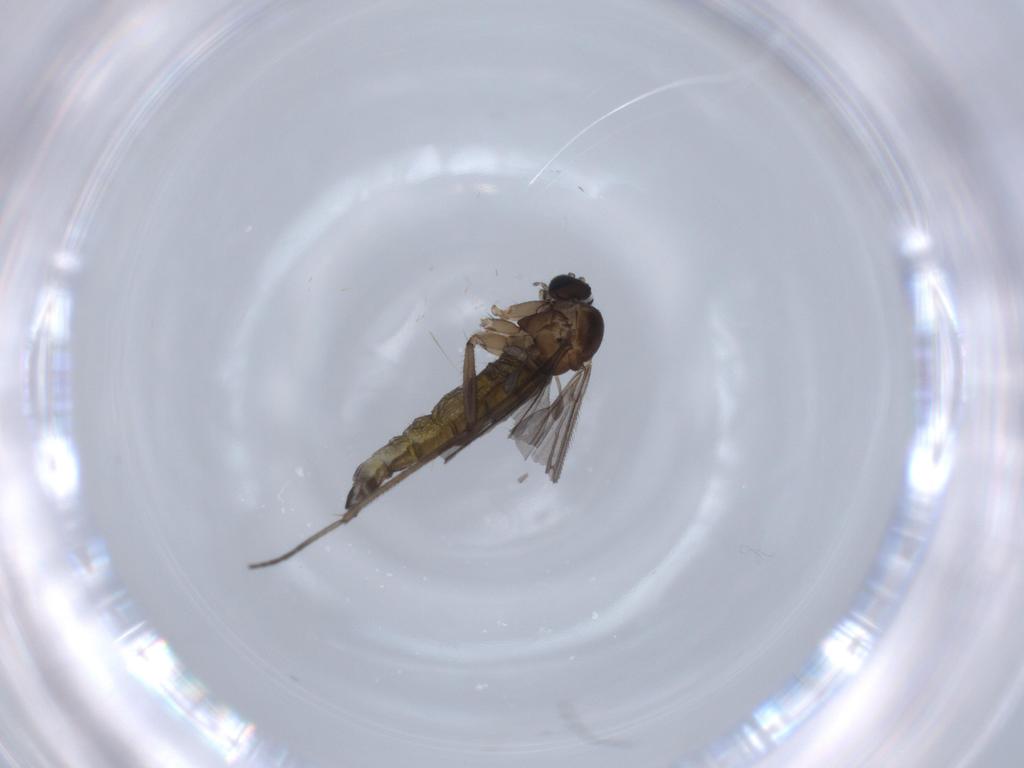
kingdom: Animalia
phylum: Arthropoda
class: Insecta
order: Diptera
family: Sciaridae
